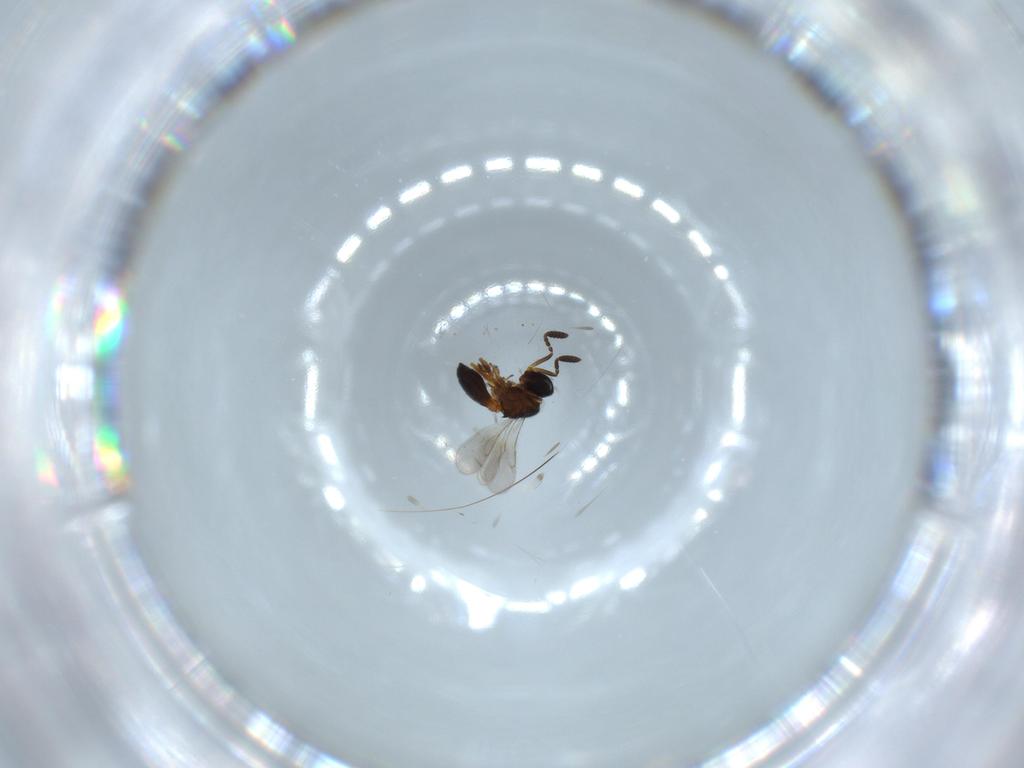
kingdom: Animalia
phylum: Arthropoda
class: Insecta
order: Hymenoptera
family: Scelionidae
